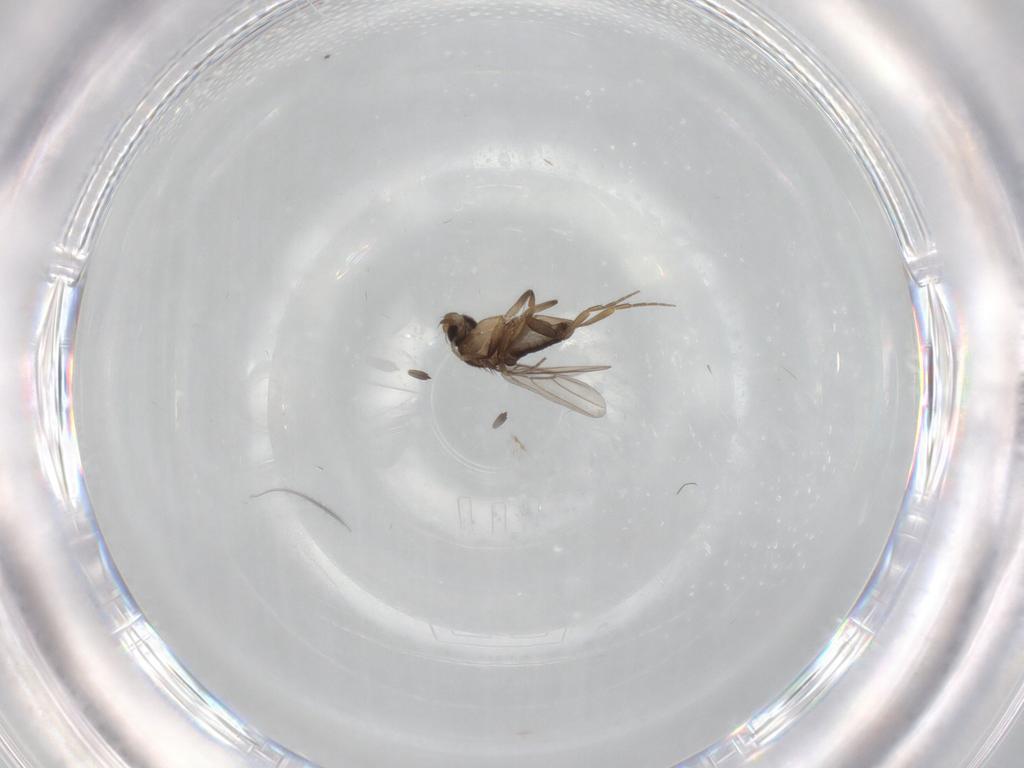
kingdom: Animalia
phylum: Arthropoda
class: Insecta
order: Diptera
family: Phoridae
